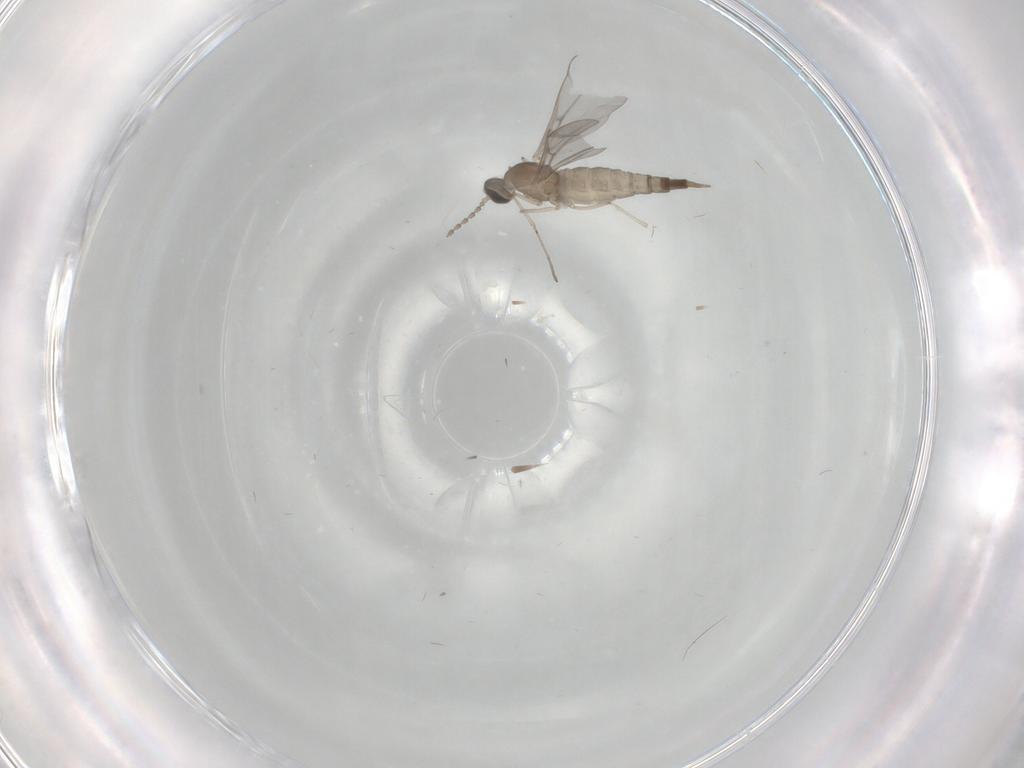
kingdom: Animalia
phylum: Arthropoda
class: Insecta
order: Diptera
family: Cecidomyiidae
